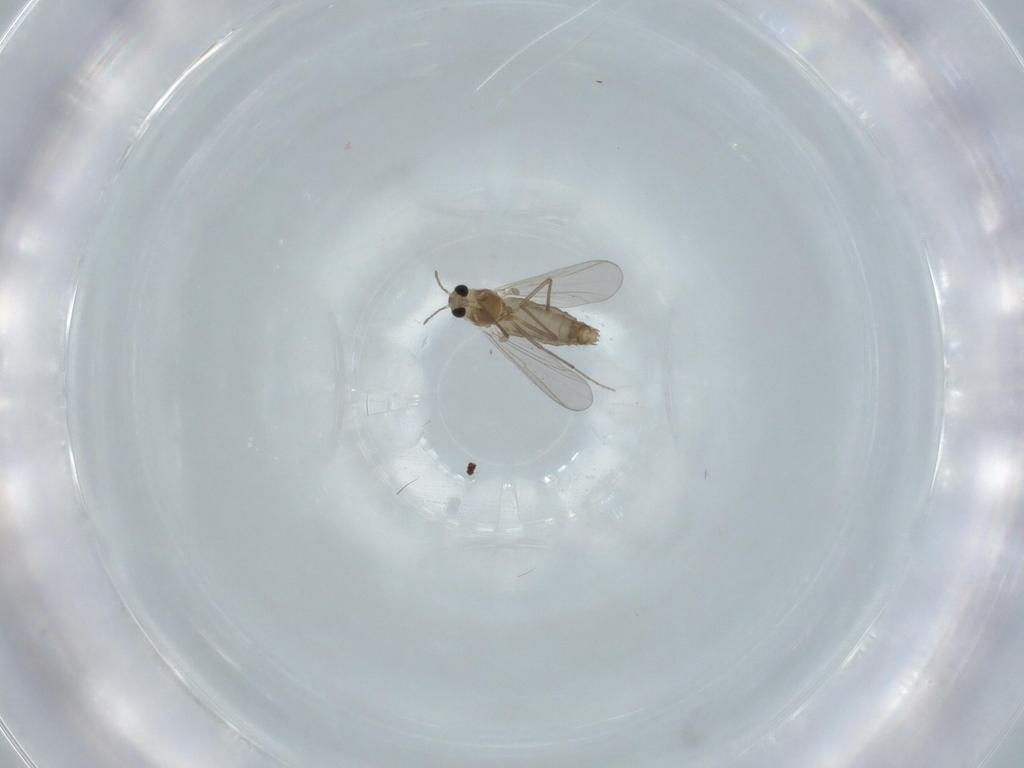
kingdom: Animalia
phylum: Arthropoda
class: Insecta
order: Diptera
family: Chironomidae
